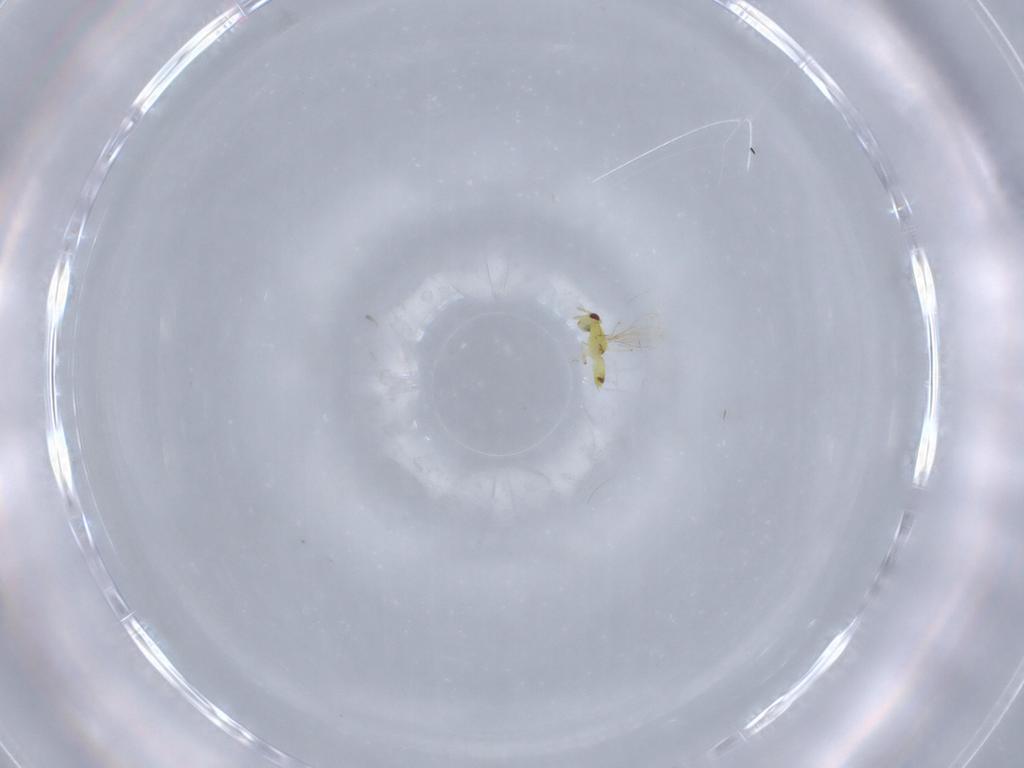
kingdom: Animalia
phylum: Arthropoda
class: Insecta
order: Hymenoptera
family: Eulophidae
